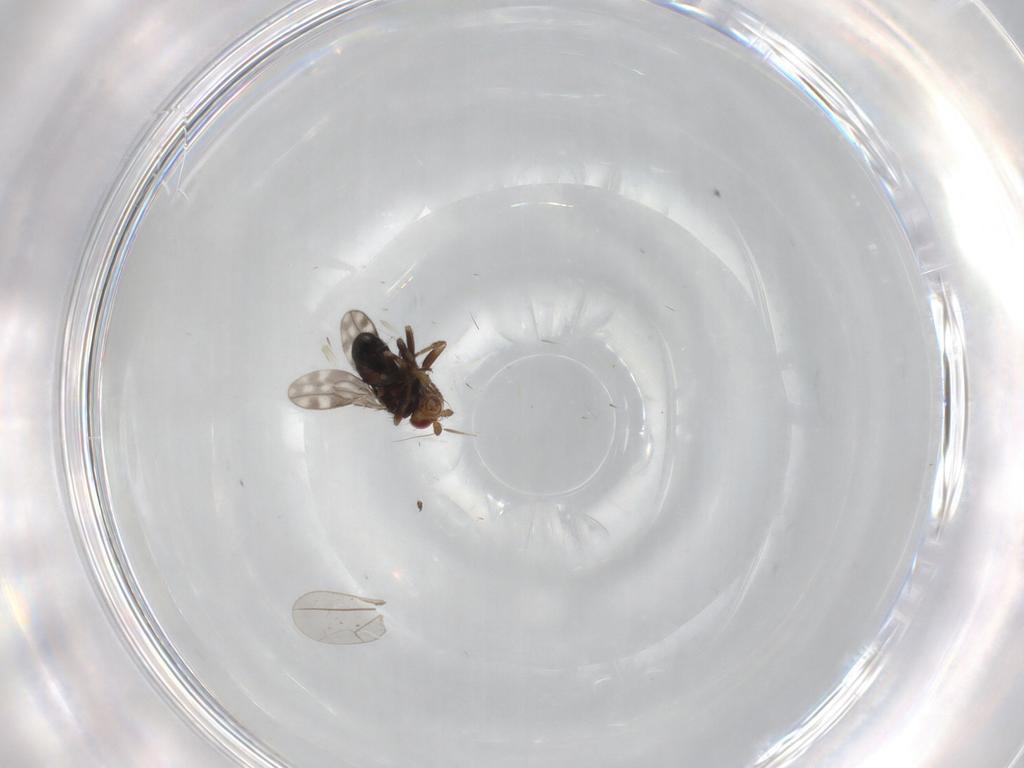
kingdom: Animalia
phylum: Arthropoda
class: Insecta
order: Diptera
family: Sphaeroceridae
